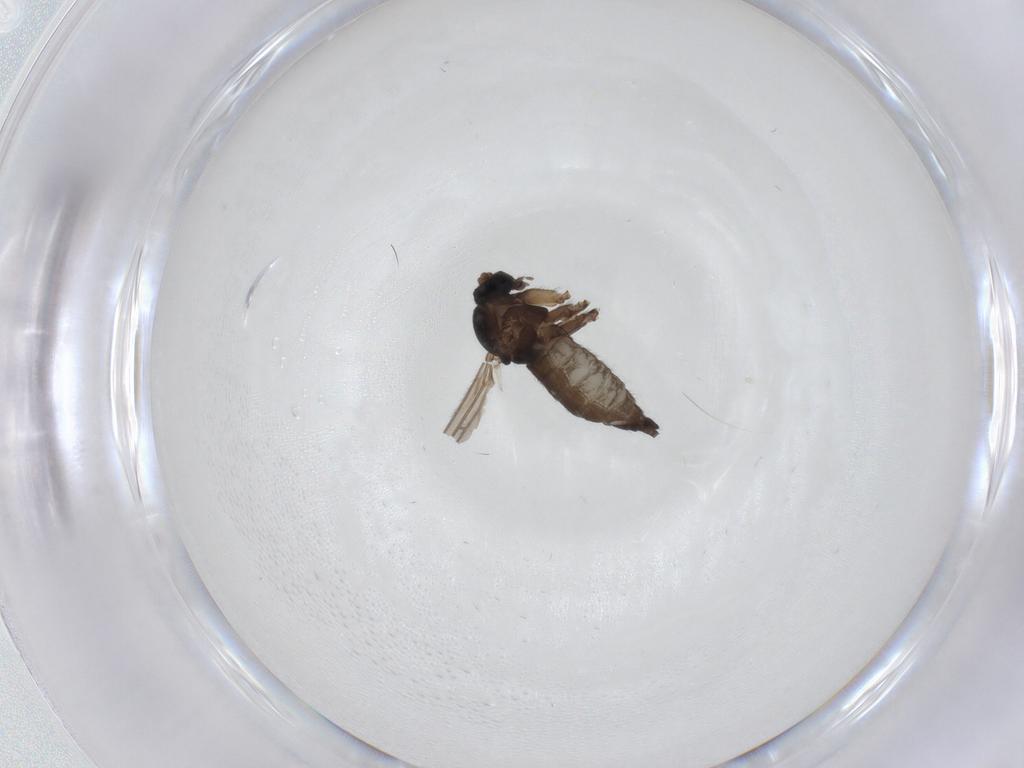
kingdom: Animalia
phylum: Arthropoda
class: Insecta
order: Diptera
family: Sciaridae
